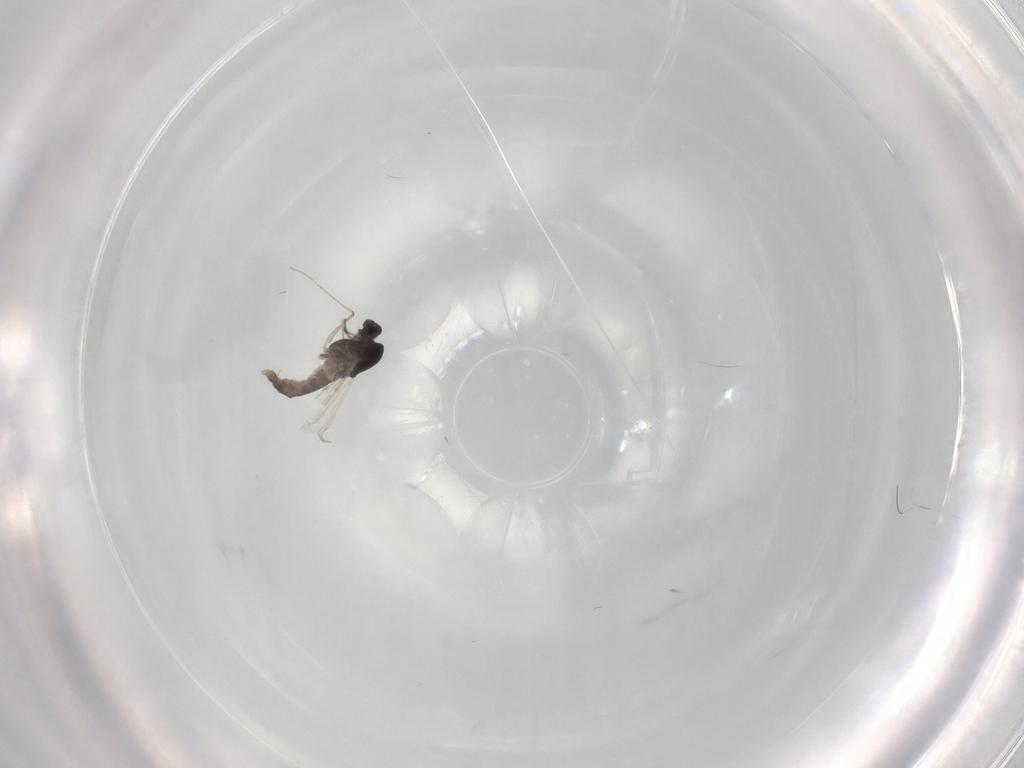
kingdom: Animalia
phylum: Arthropoda
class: Insecta
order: Diptera
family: Chironomidae
